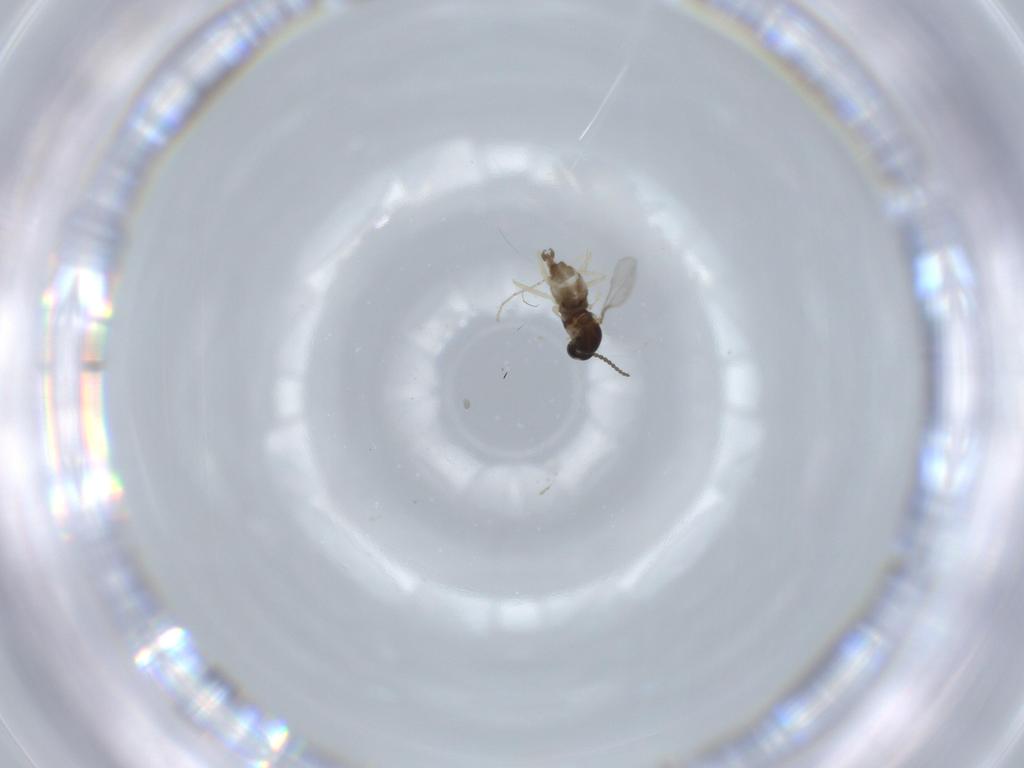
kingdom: Animalia
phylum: Arthropoda
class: Insecta
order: Diptera
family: Cecidomyiidae
